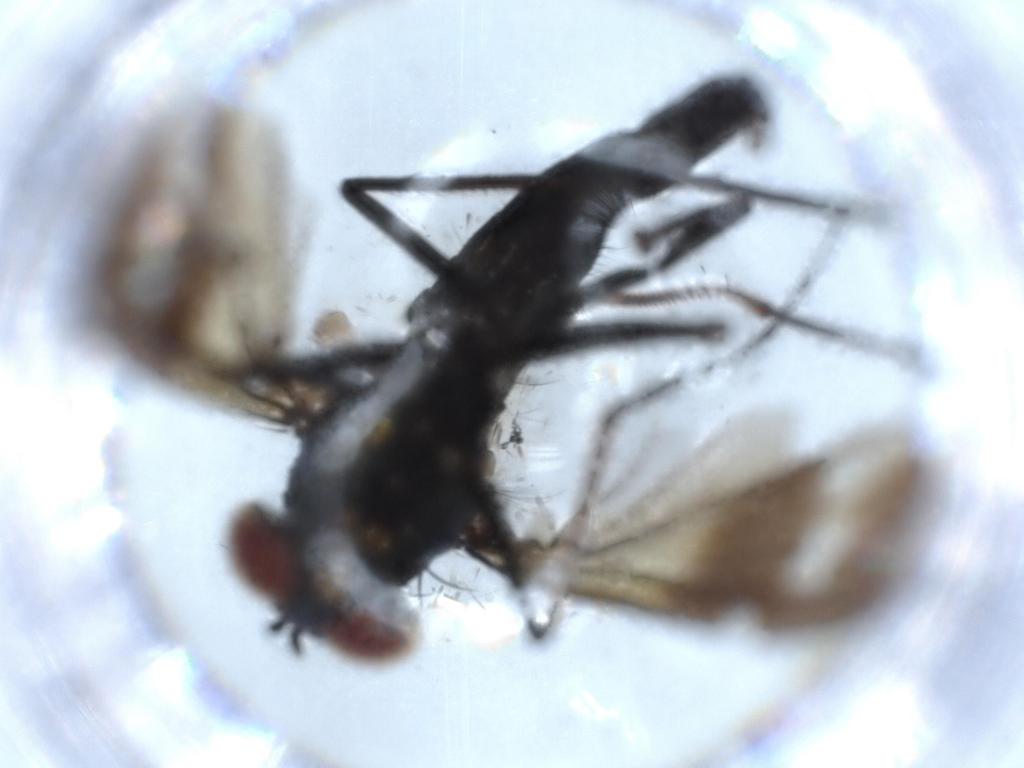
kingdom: Animalia
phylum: Arthropoda
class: Insecta
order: Diptera
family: Dolichopodidae
